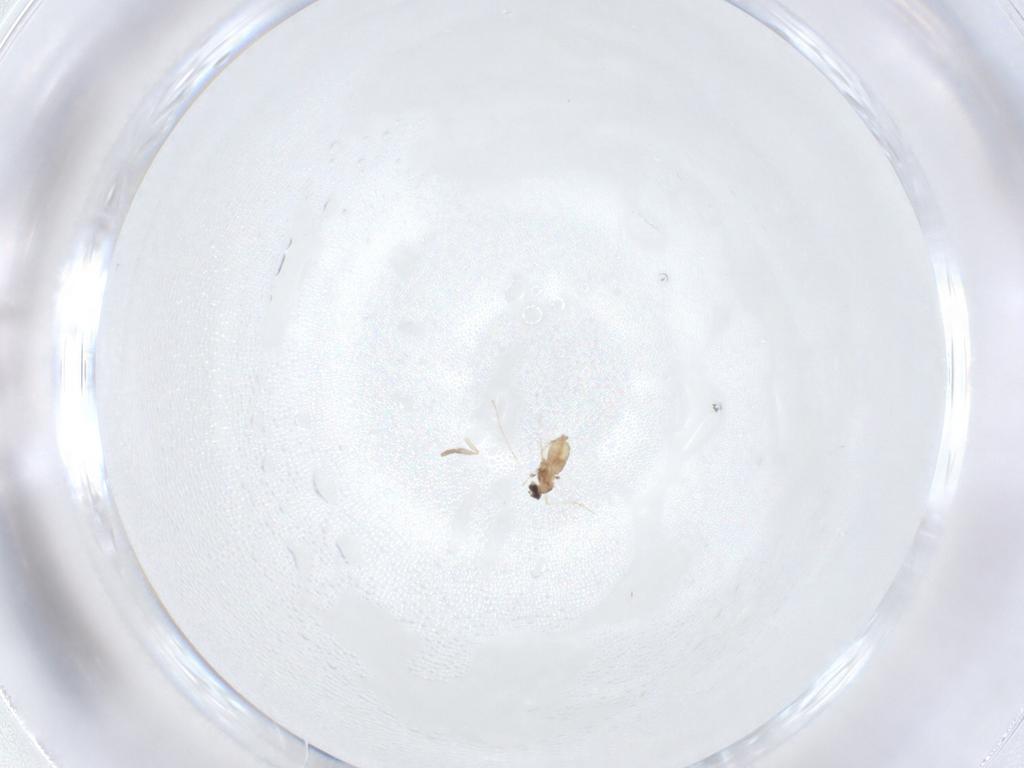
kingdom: Animalia
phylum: Arthropoda
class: Insecta
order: Diptera
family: Cecidomyiidae
